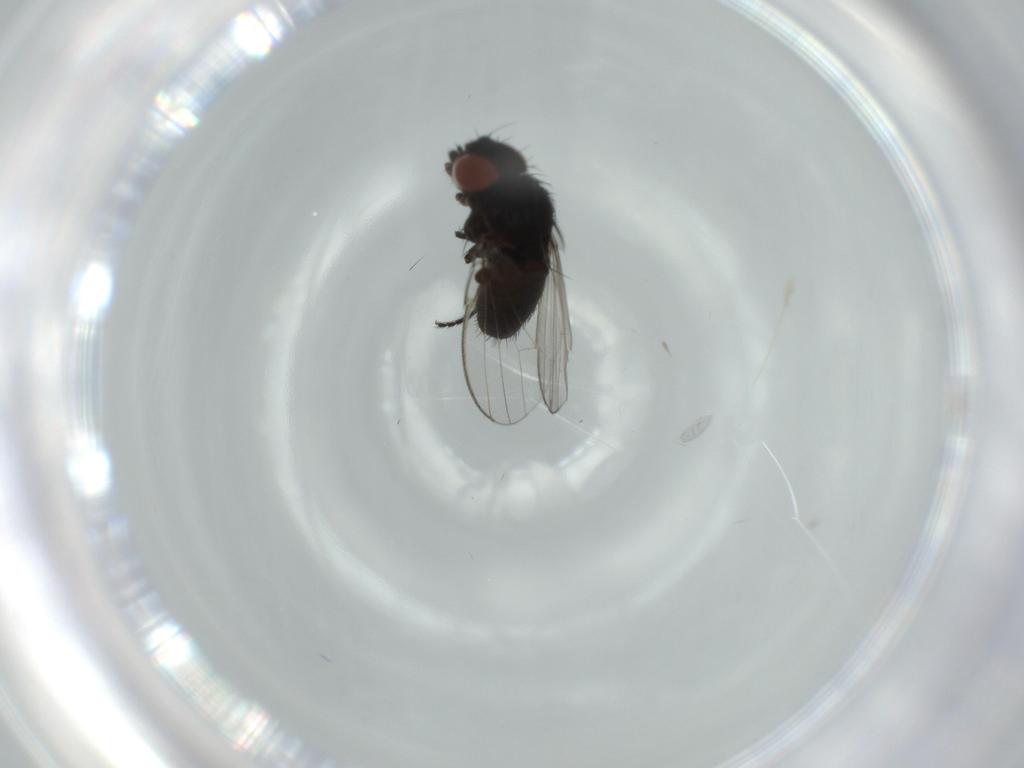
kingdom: Animalia
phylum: Arthropoda
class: Insecta
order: Diptera
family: Milichiidae
